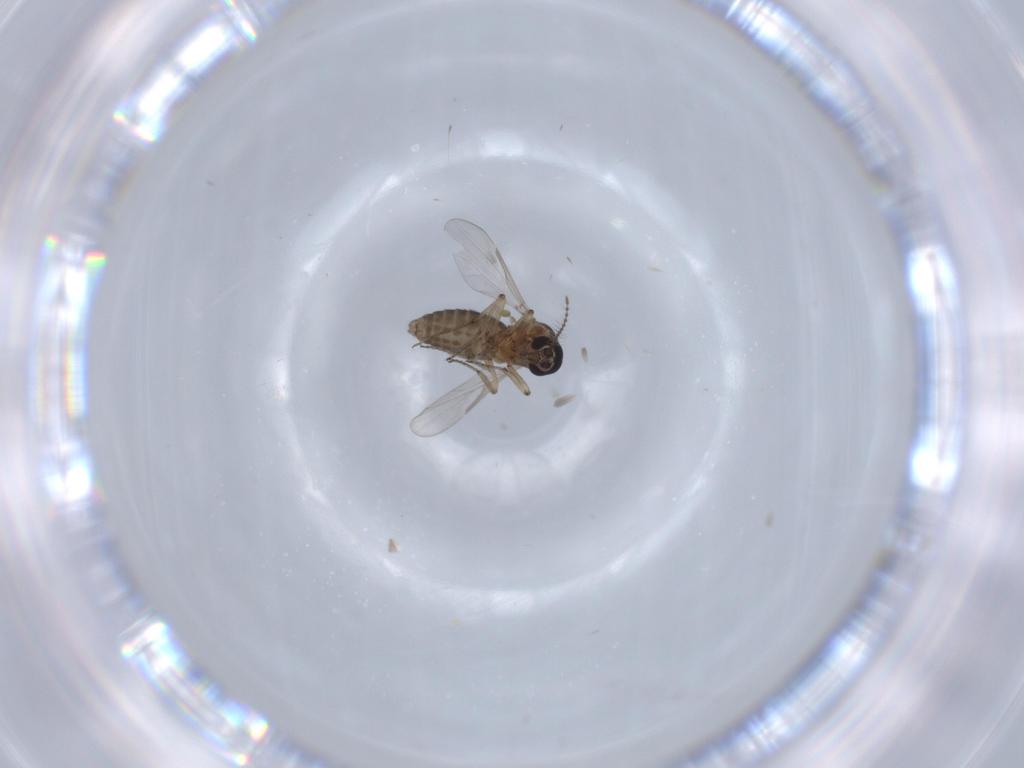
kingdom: Animalia
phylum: Arthropoda
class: Insecta
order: Diptera
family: Ceratopogonidae
